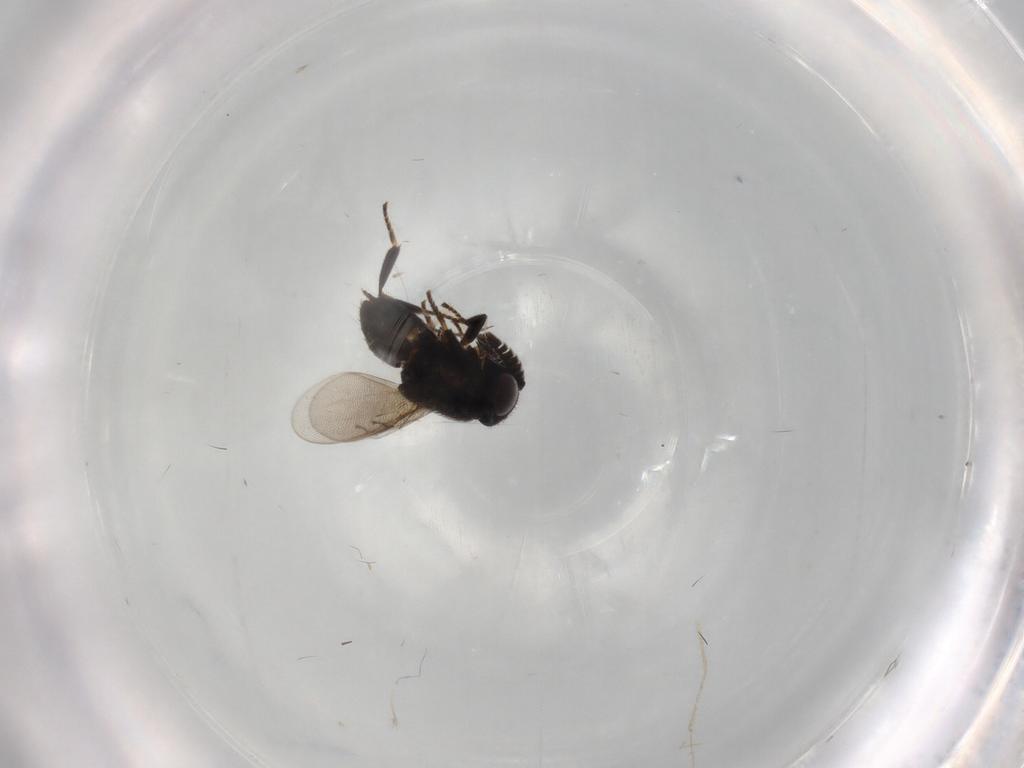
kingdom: Animalia
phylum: Arthropoda
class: Insecta
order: Hymenoptera
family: Encyrtidae
